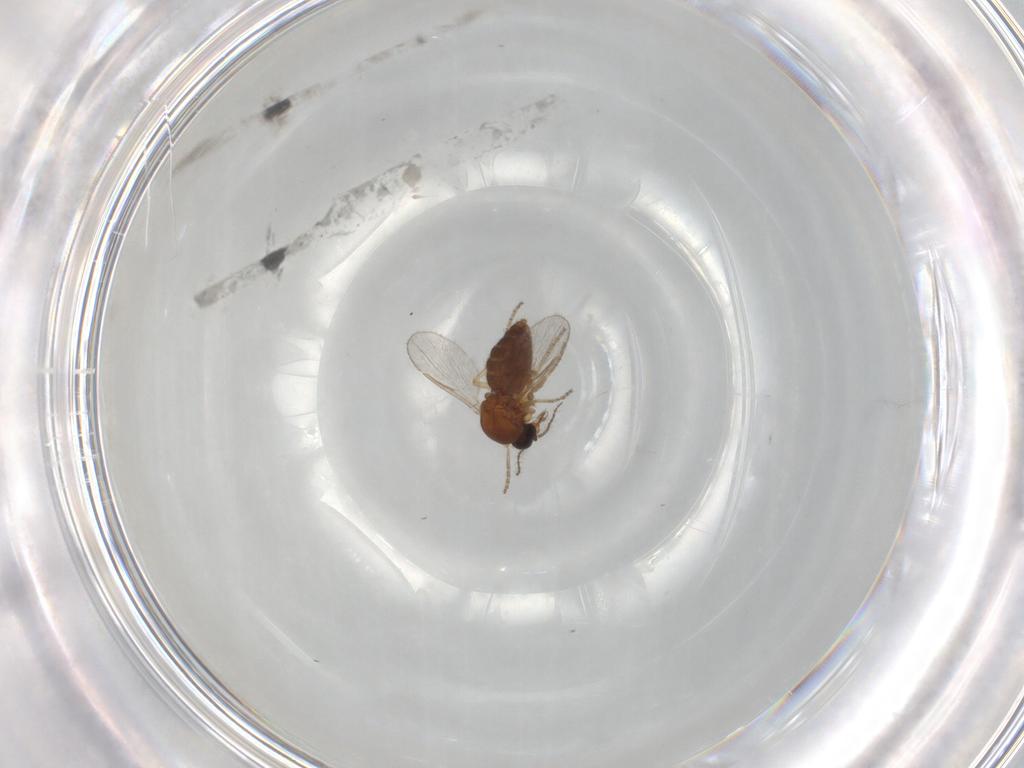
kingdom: Animalia
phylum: Arthropoda
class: Insecta
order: Diptera
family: Ceratopogonidae
